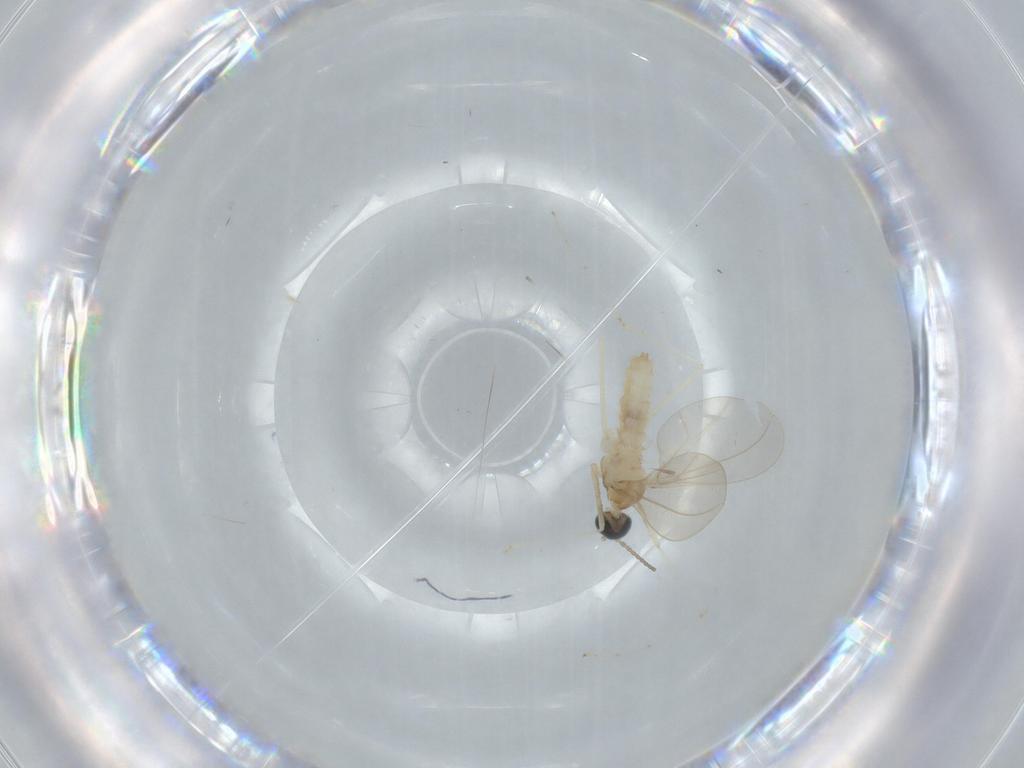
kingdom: Animalia
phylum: Arthropoda
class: Insecta
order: Diptera
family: Cecidomyiidae
